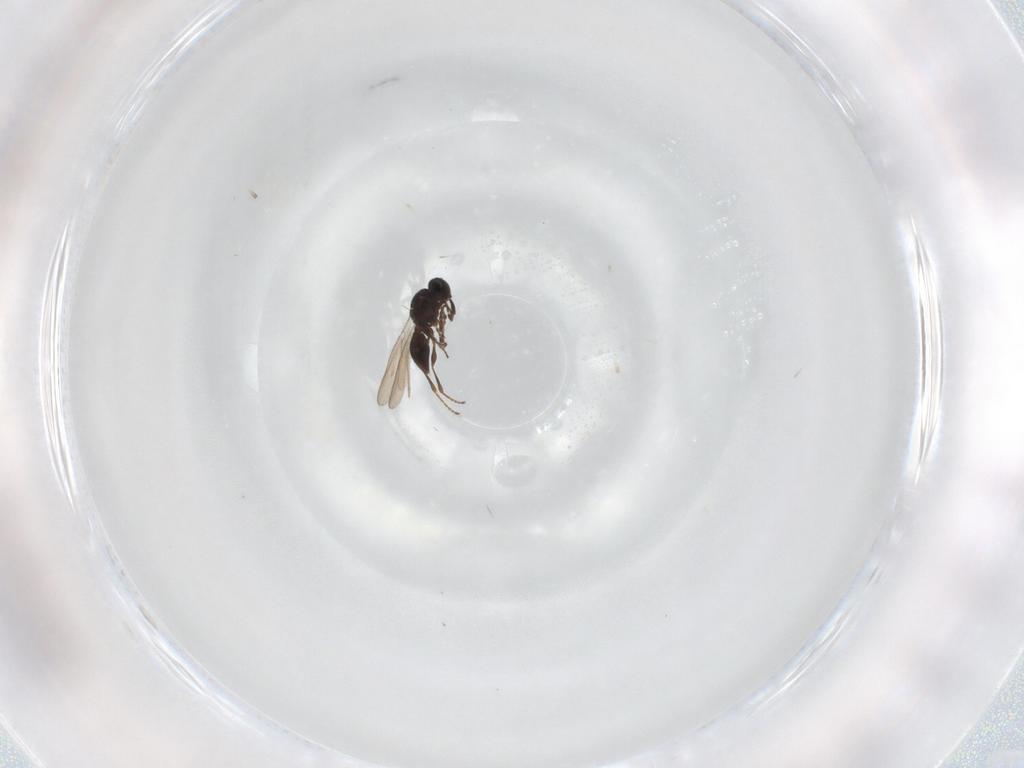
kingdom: Animalia
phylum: Arthropoda
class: Insecta
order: Hymenoptera
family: Platygastridae
